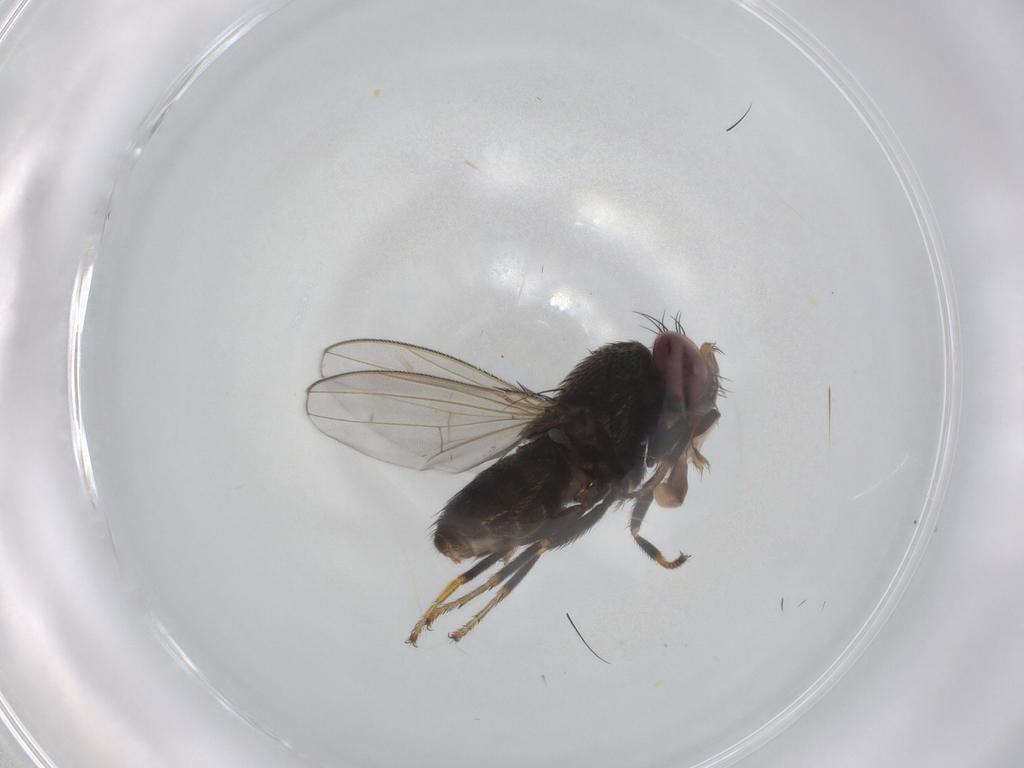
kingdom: Animalia
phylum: Arthropoda
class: Insecta
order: Diptera
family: Ephydridae
